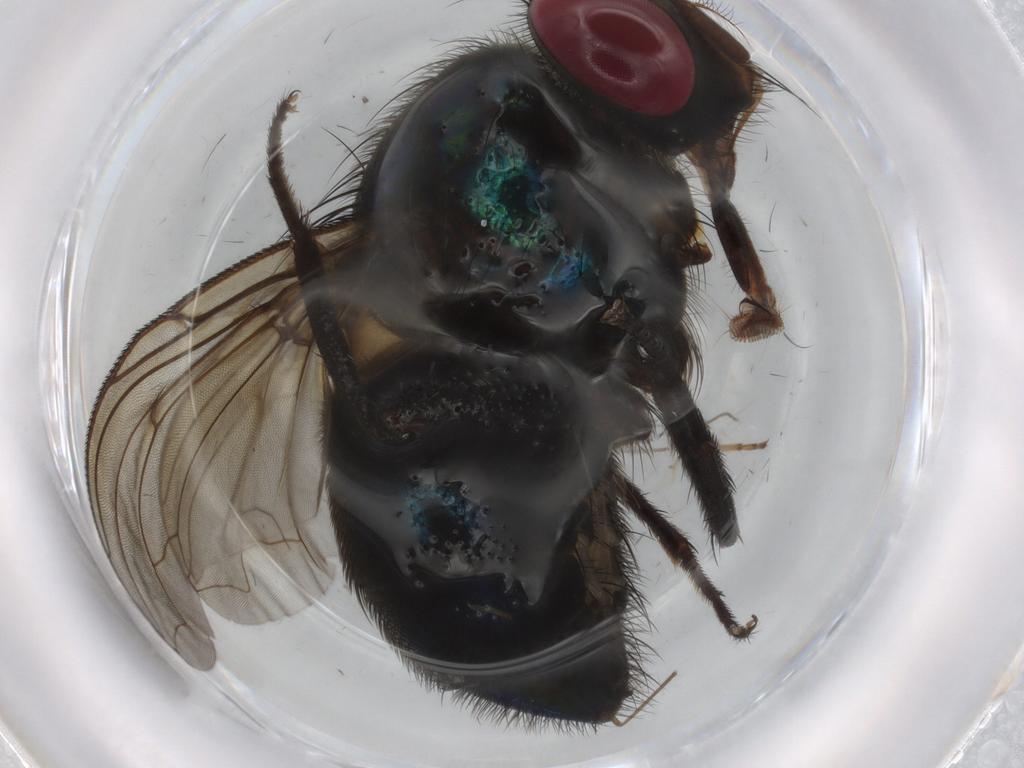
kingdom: Animalia
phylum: Arthropoda
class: Insecta
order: Diptera
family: Calliphoridae
